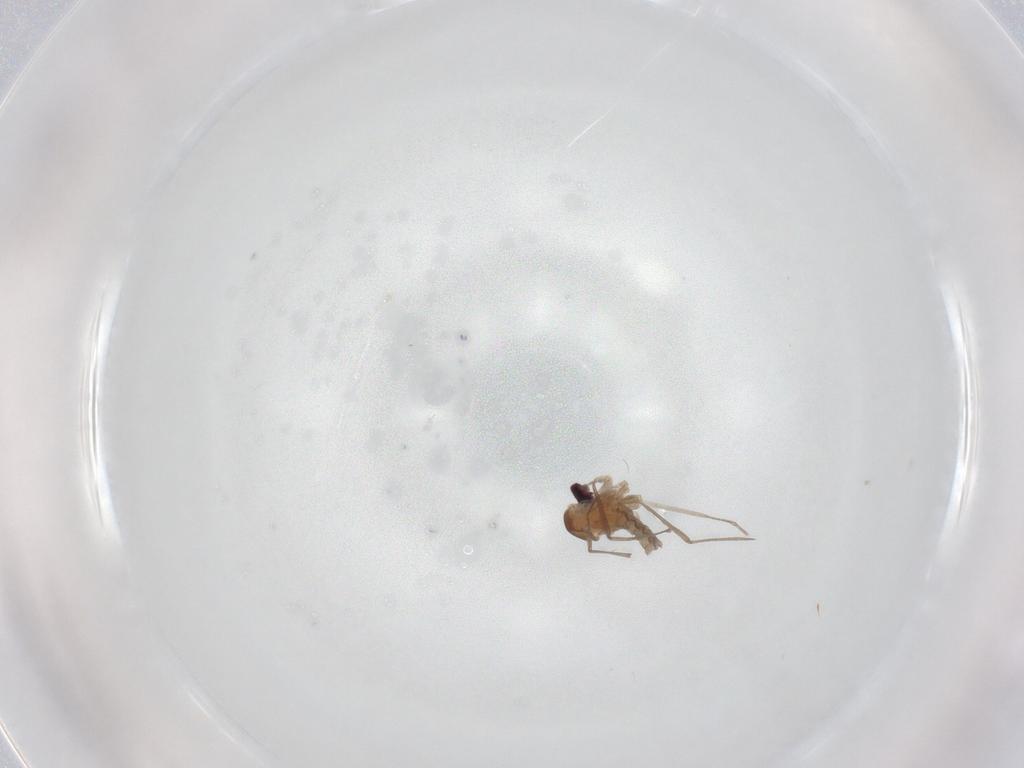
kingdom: Animalia
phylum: Arthropoda
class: Insecta
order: Diptera
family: Cecidomyiidae
